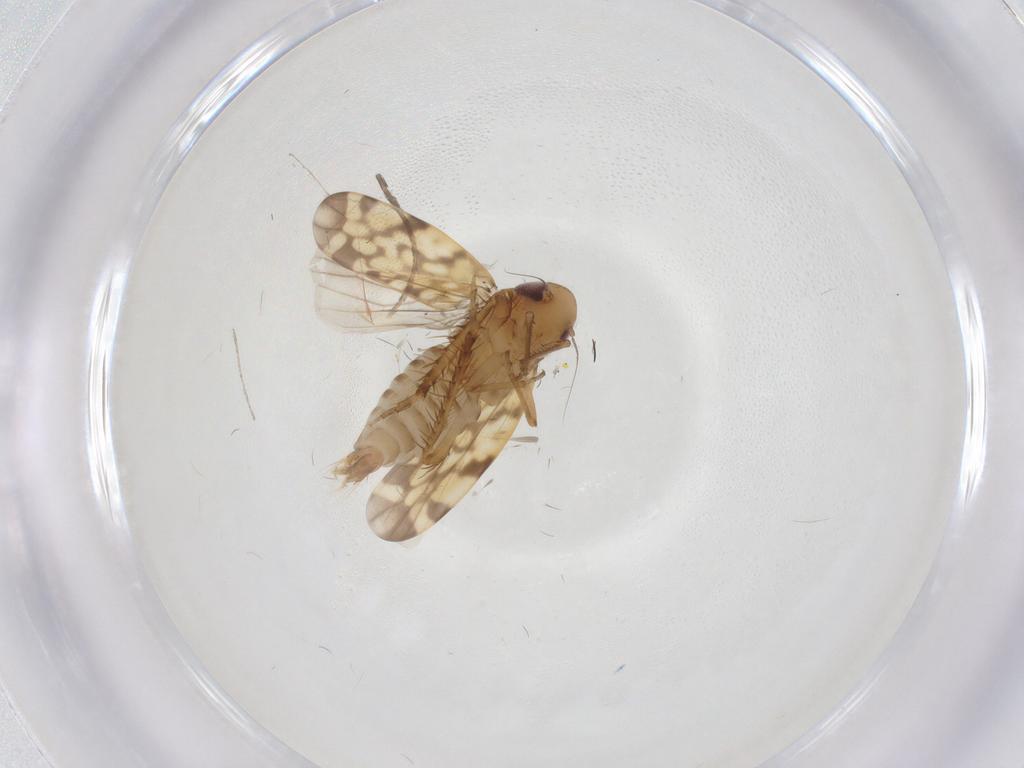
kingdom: Animalia
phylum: Arthropoda
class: Insecta
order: Hemiptera
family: Cicadellidae
